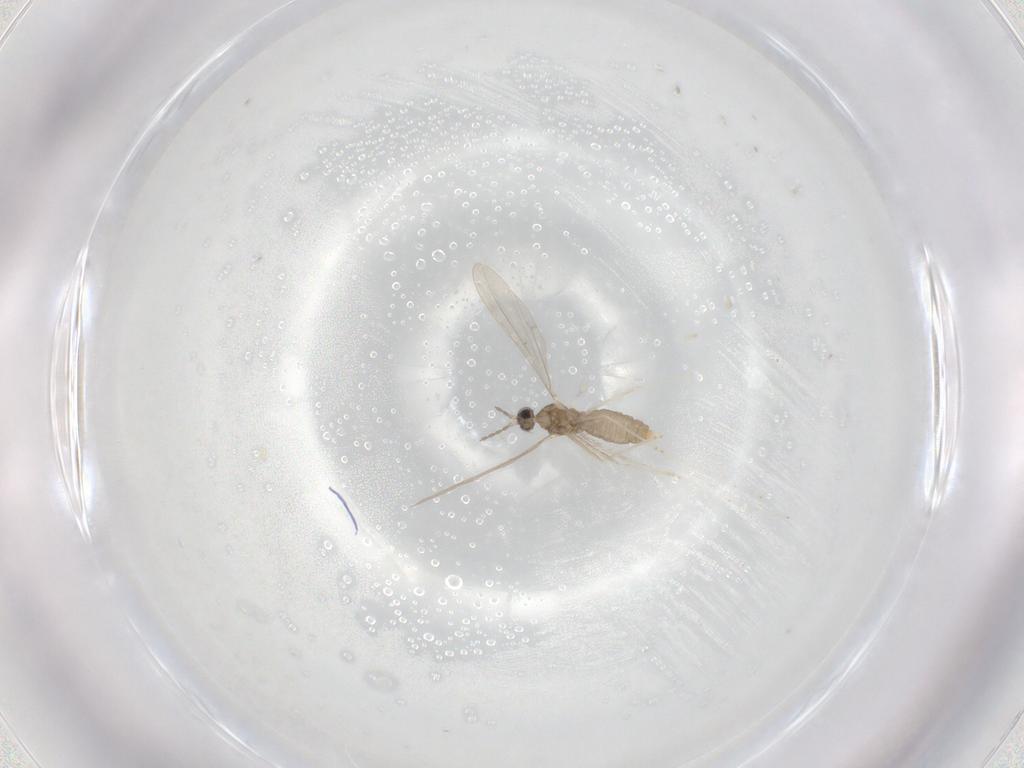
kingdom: Animalia
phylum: Arthropoda
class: Insecta
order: Diptera
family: Cecidomyiidae
